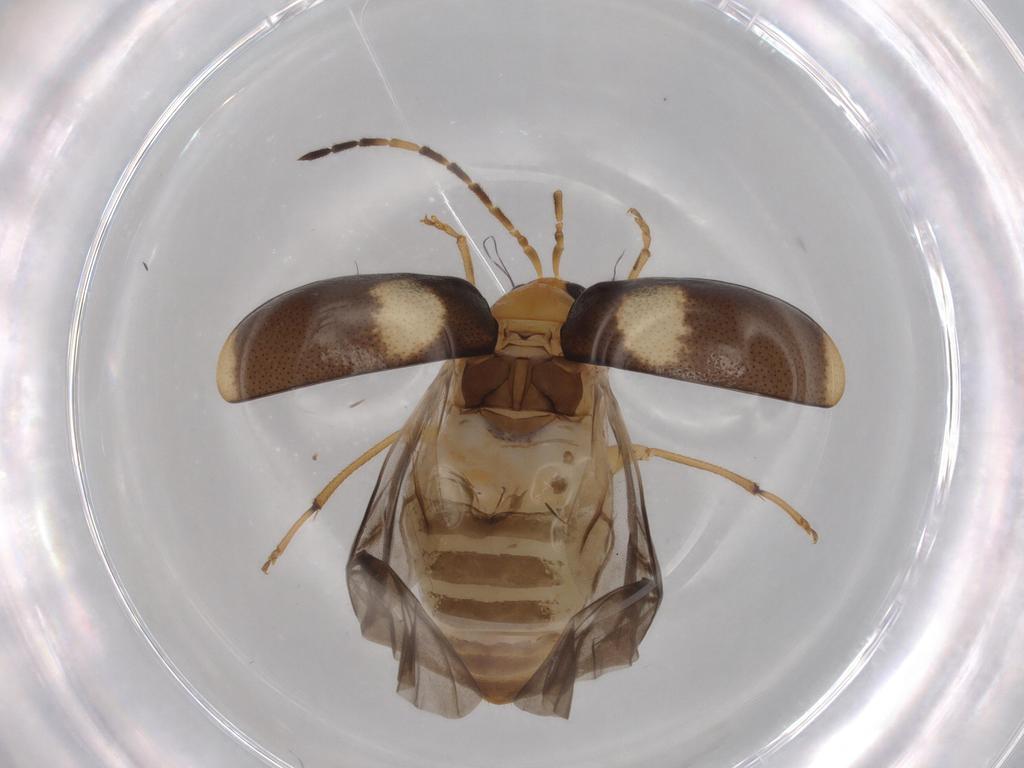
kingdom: Animalia
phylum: Arthropoda
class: Insecta
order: Coleoptera
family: Chrysomelidae
